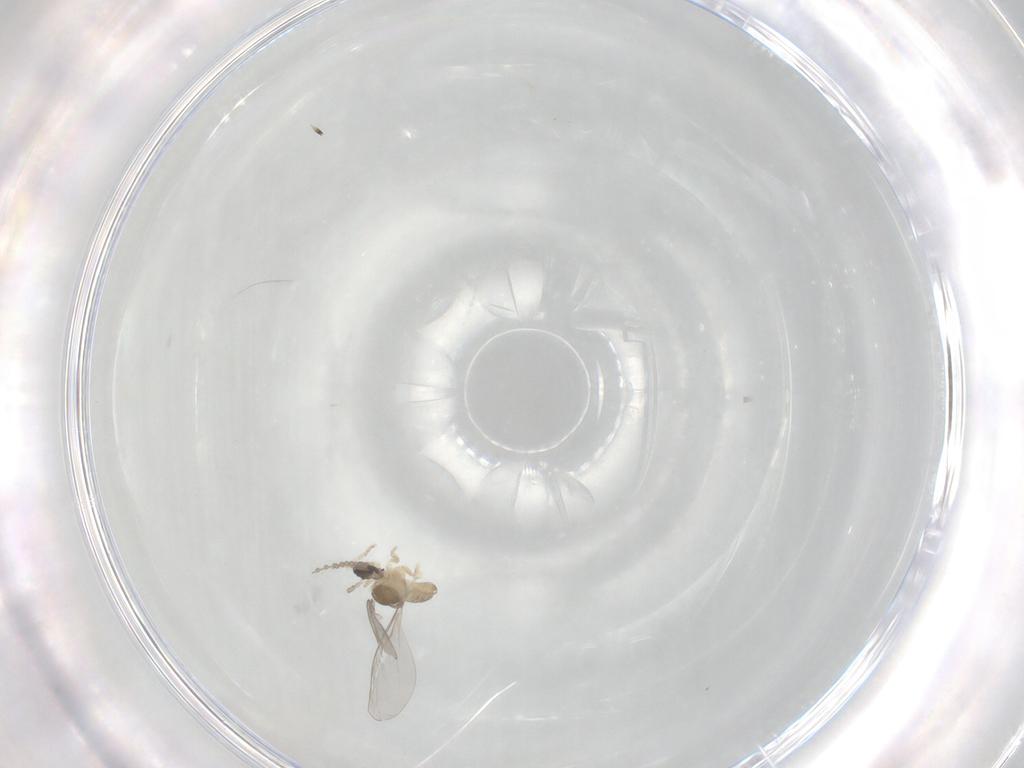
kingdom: Animalia
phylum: Arthropoda
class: Insecta
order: Diptera
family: Cecidomyiidae
